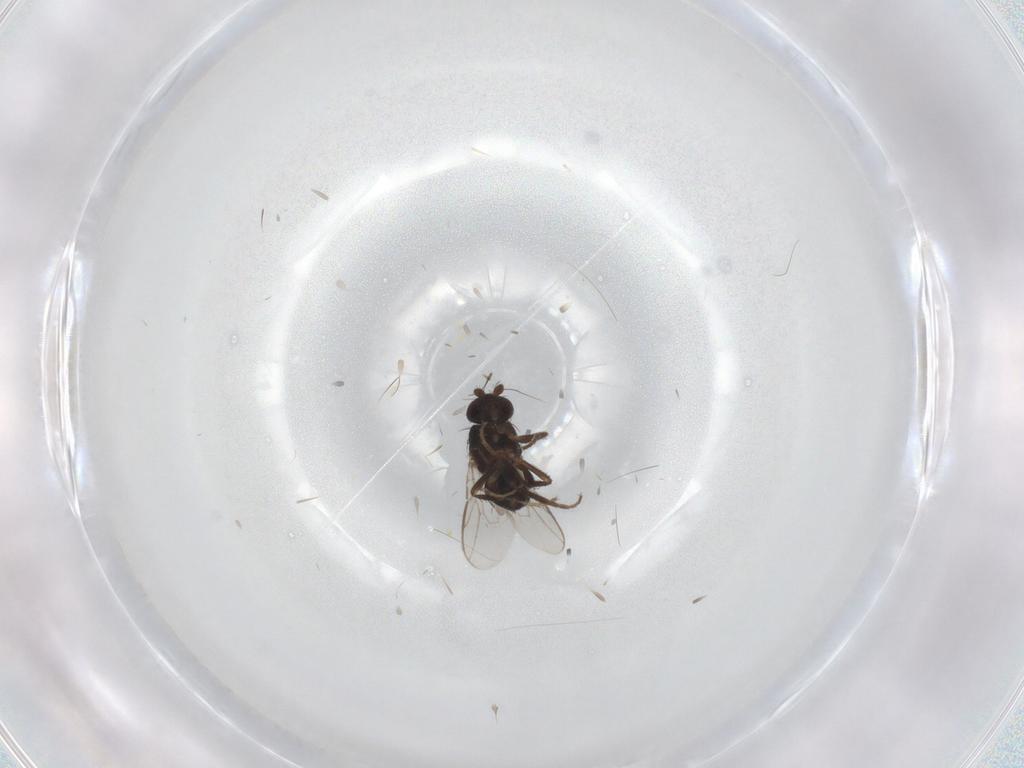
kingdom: Animalia
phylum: Arthropoda
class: Insecta
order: Diptera
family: Sphaeroceridae
